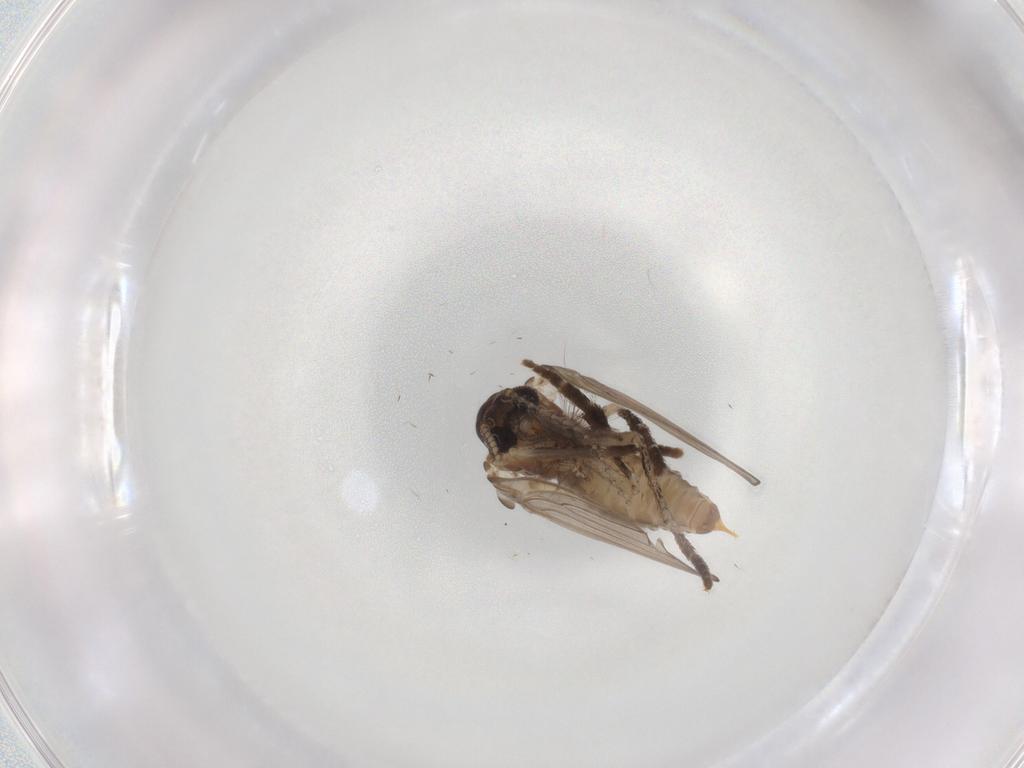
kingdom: Animalia
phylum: Arthropoda
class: Insecta
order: Diptera
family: Psychodidae
